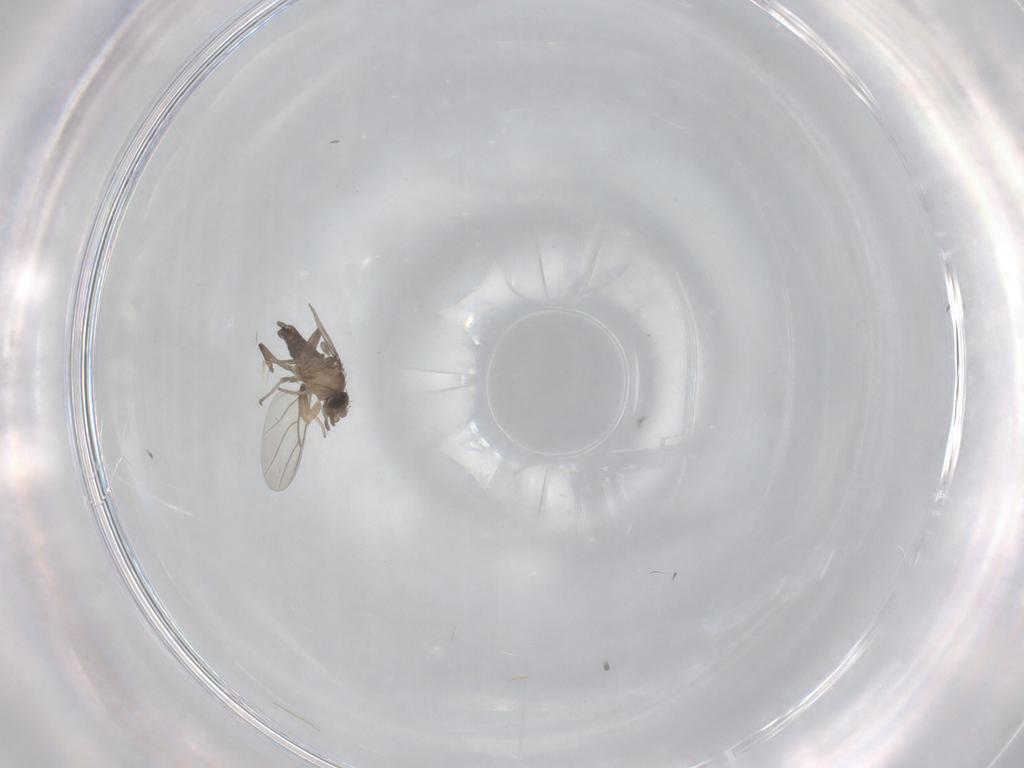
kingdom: Animalia
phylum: Arthropoda
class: Insecta
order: Diptera
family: Phoridae
